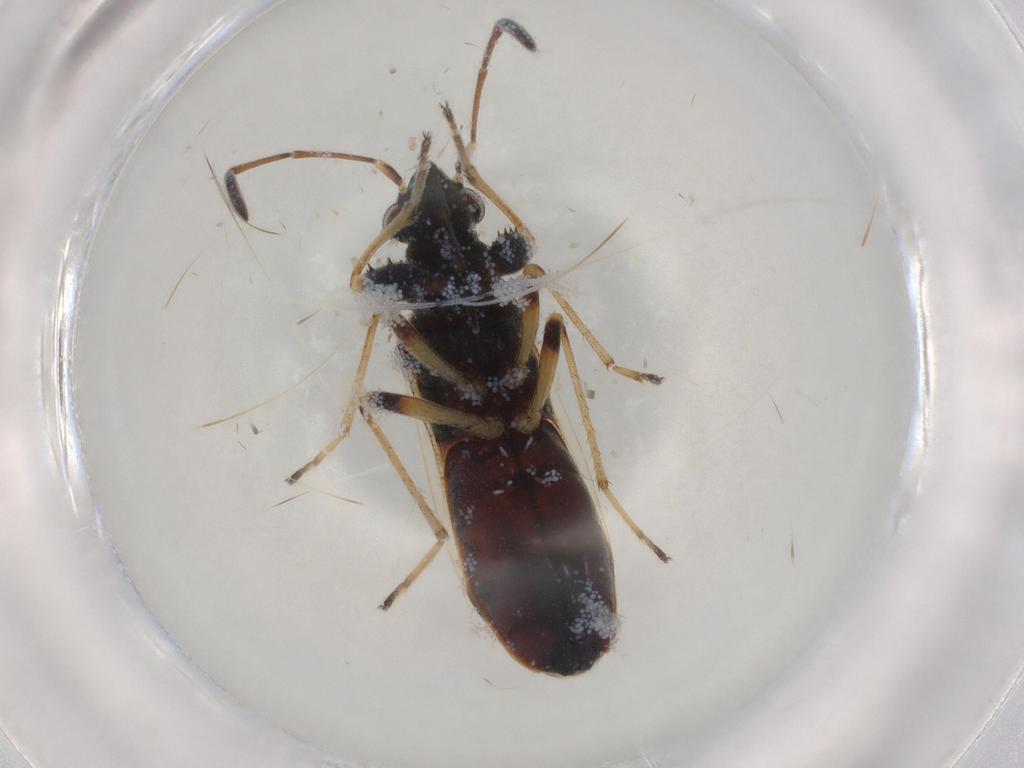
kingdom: Animalia
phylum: Arthropoda
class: Insecta
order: Hemiptera
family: Rhyparochromidae
